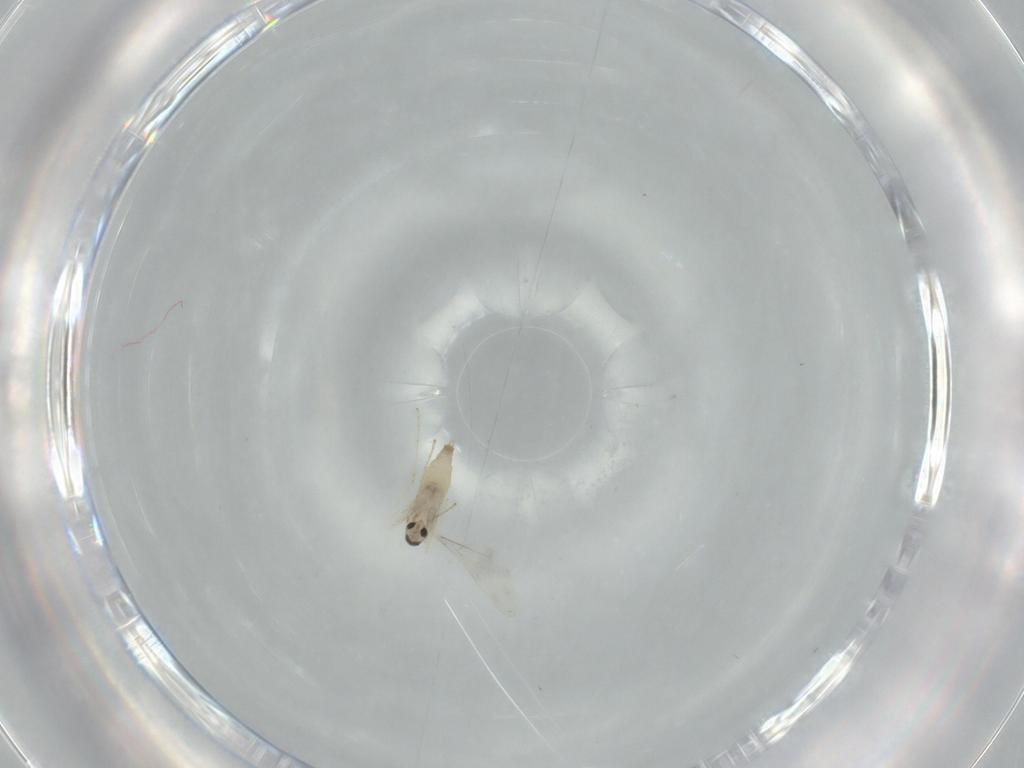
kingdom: Animalia
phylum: Arthropoda
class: Insecta
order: Diptera
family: Cecidomyiidae
